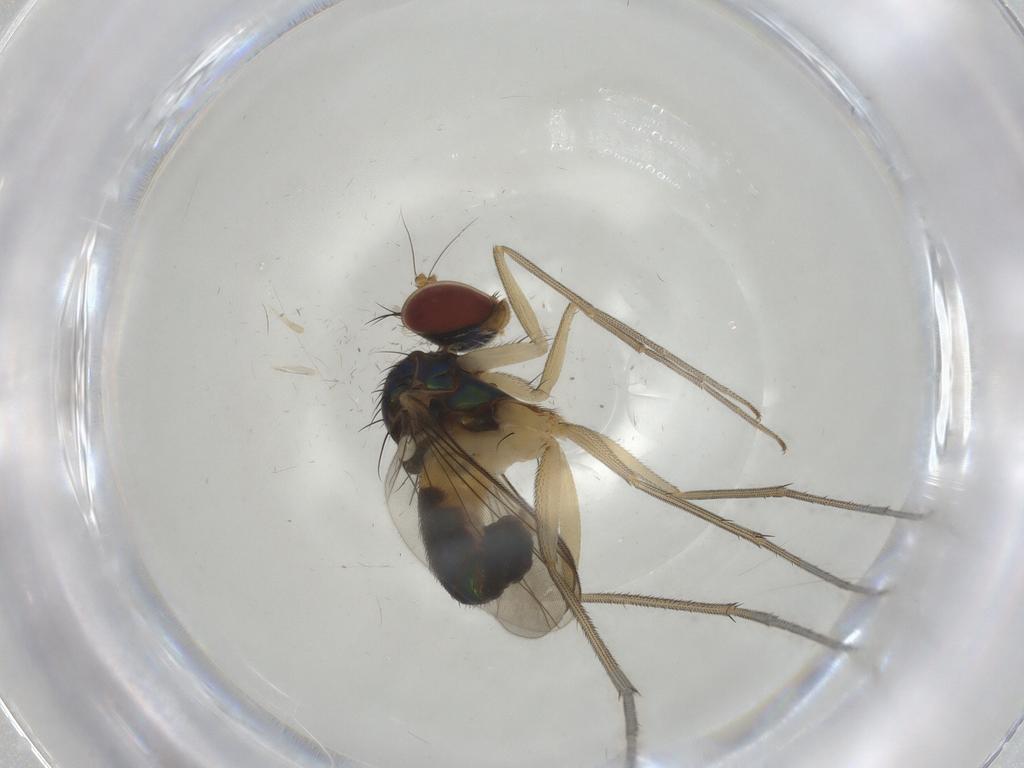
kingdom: Animalia
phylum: Arthropoda
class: Insecta
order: Diptera
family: Dolichopodidae
